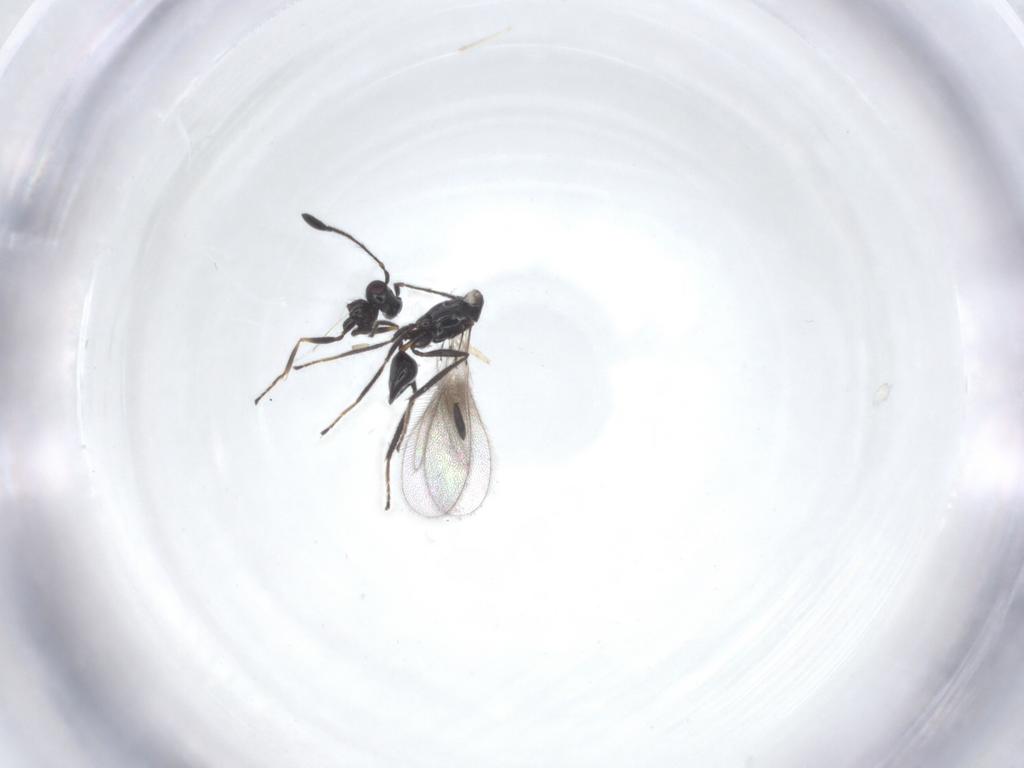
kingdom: Animalia
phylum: Arthropoda
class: Insecta
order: Hymenoptera
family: Mymaridae
